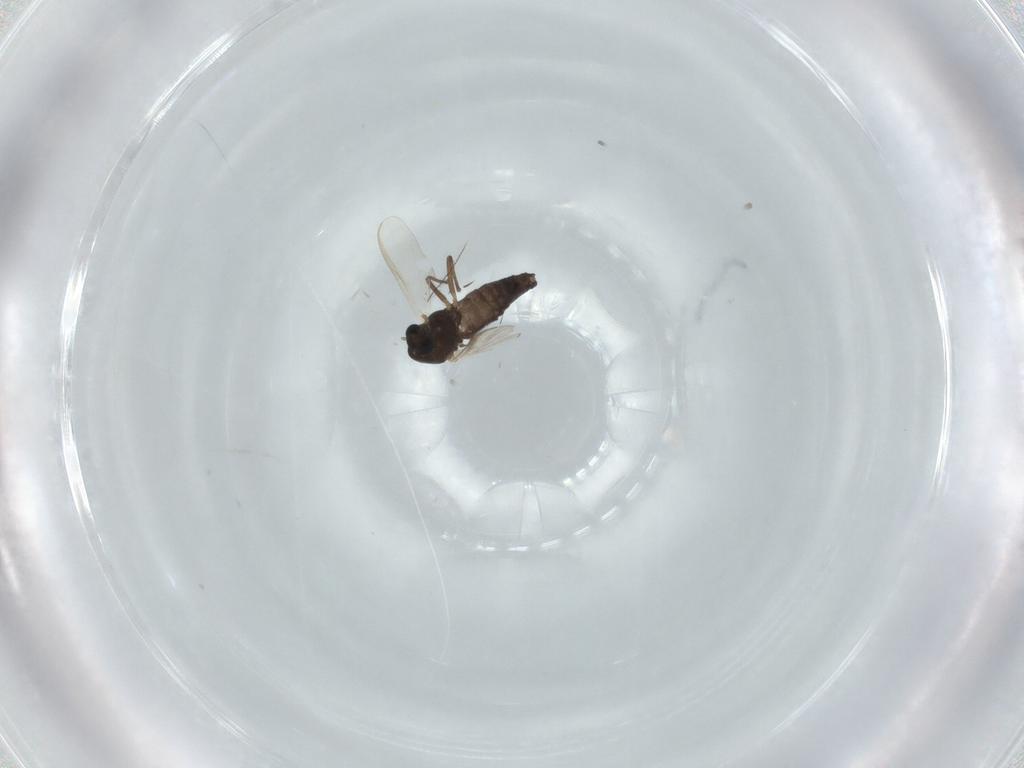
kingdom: Animalia
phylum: Arthropoda
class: Insecta
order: Diptera
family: Chironomidae
